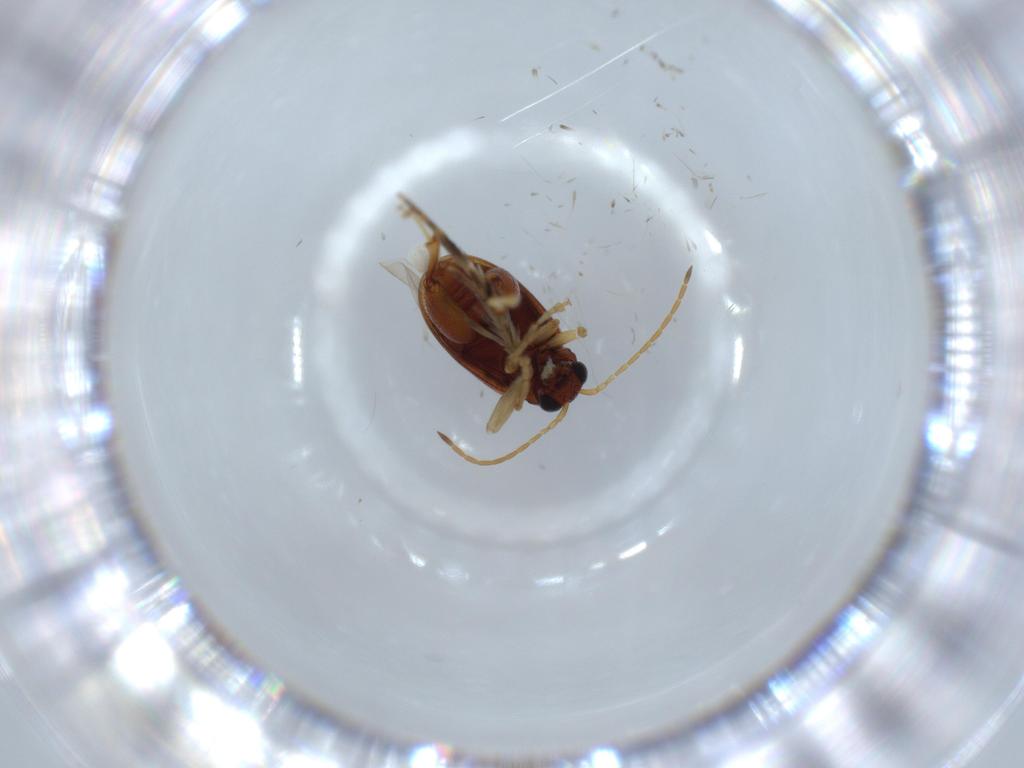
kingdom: Animalia
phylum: Arthropoda
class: Insecta
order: Coleoptera
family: Chrysomelidae
